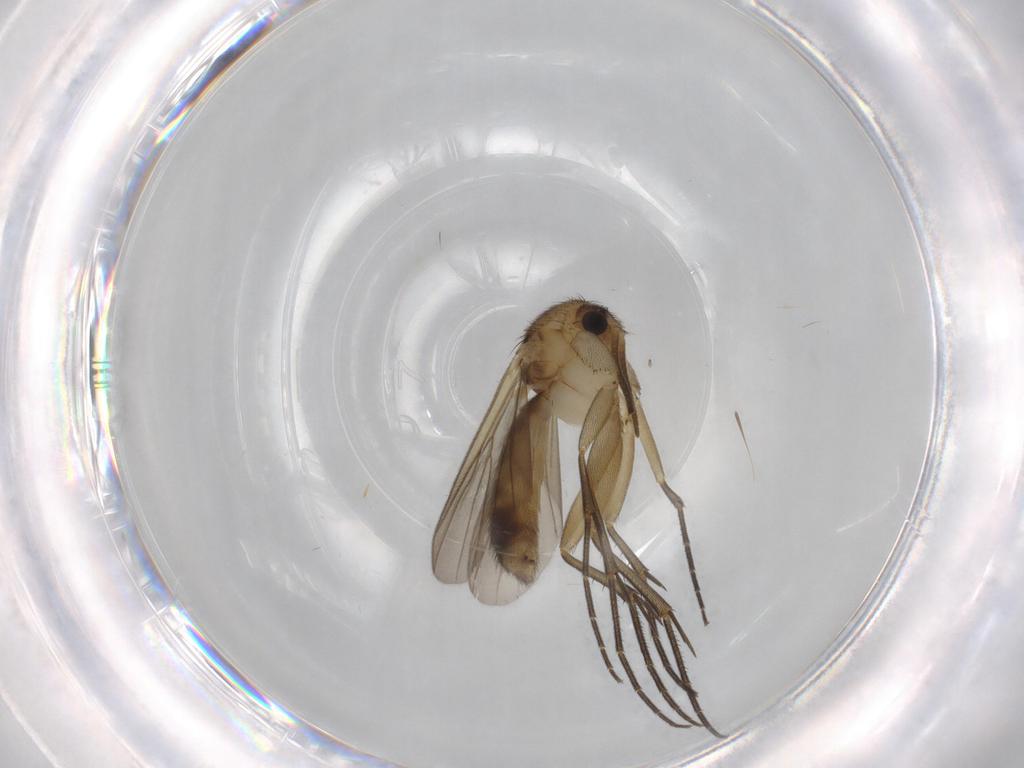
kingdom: Animalia
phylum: Arthropoda
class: Insecta
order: Diptera
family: Mycetophilidae
